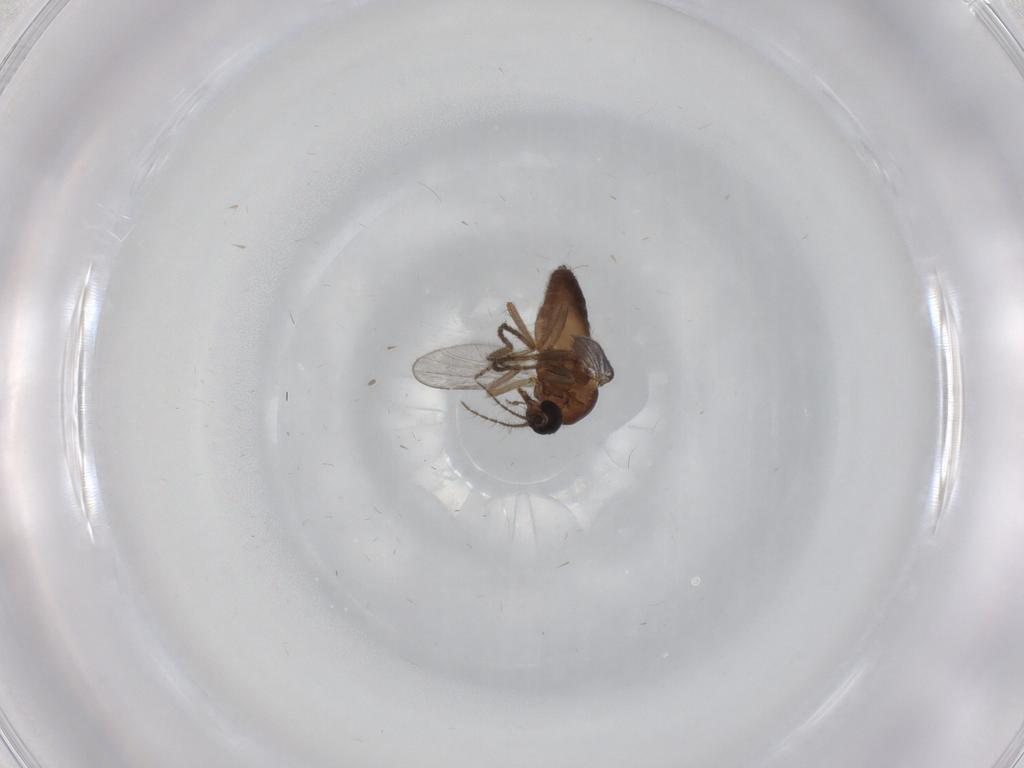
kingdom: Animalia
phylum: Arthropoda
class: Insecta
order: Diptera
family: Ceratopogonidae
